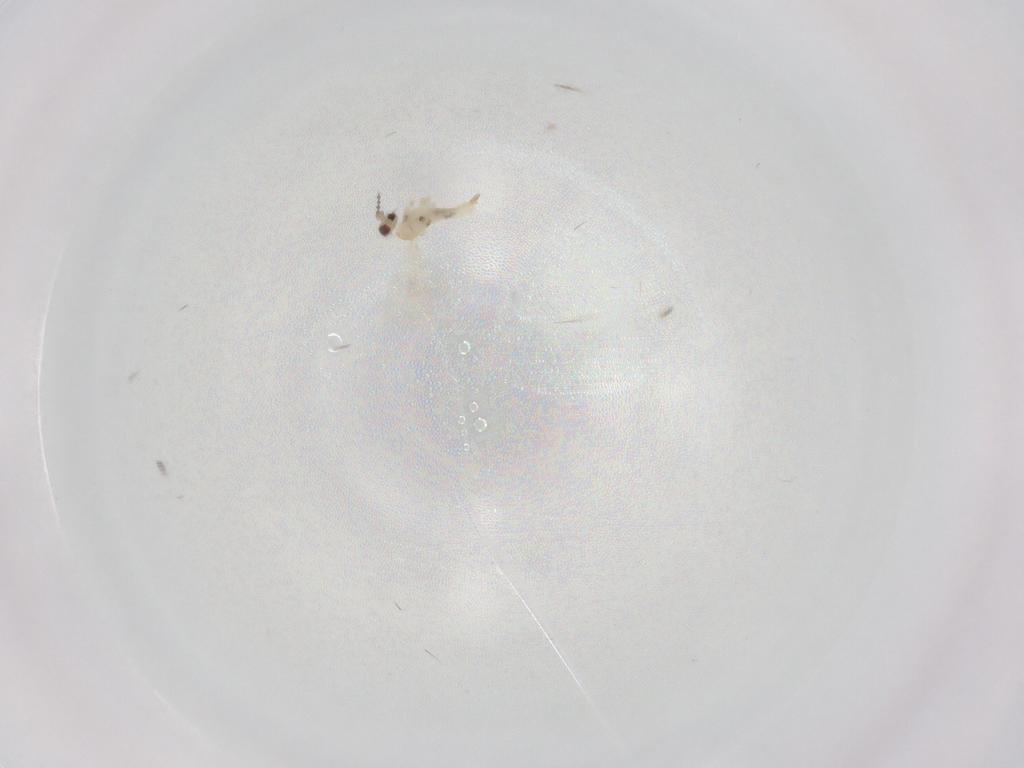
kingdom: Animalia
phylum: Arthropoda
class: Insecta
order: Diptera
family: Cecidomyiidae
